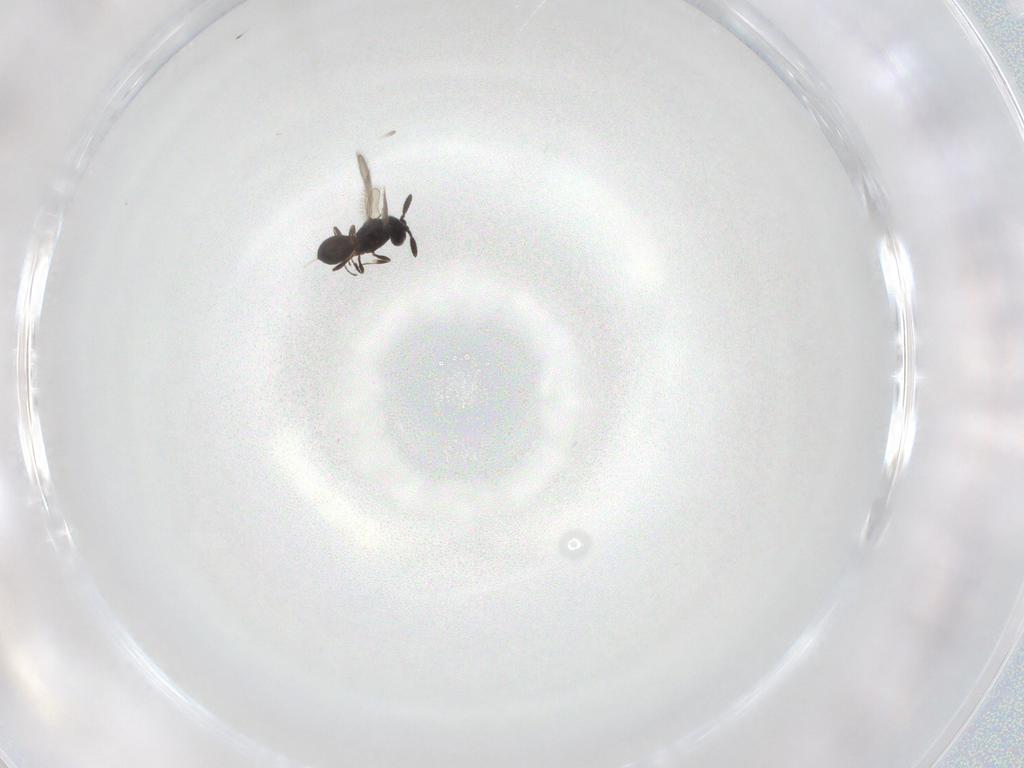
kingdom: Animalia
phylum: Arthropoda
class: Insecta
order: Hymenoptera
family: Scelionidae
